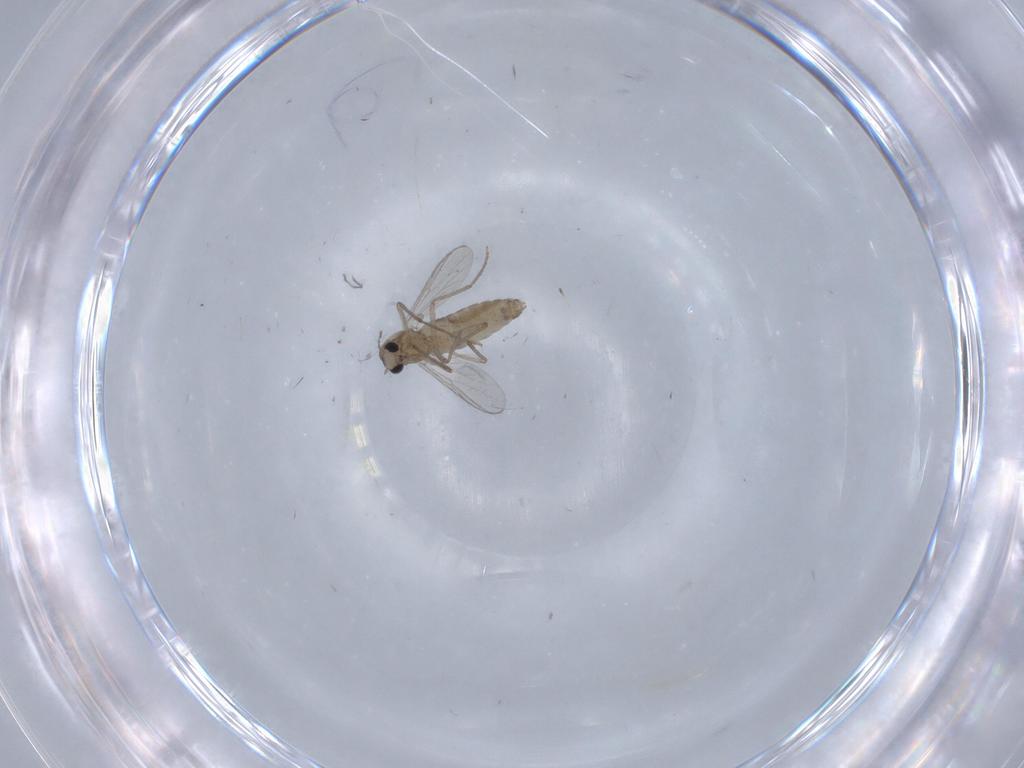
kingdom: Animalia
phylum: Arthropoda
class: Insecta
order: Diptera
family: Chironomidae
